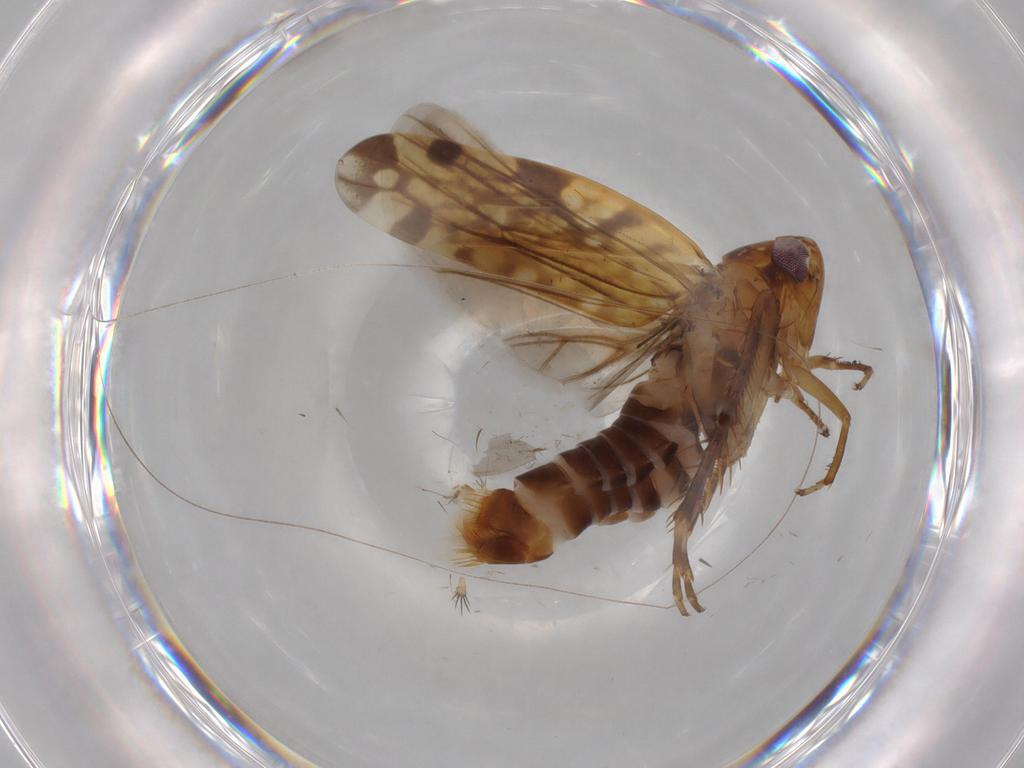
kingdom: Animalia
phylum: Arthropoda
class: Insecta
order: Hemiptera
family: Cicadellidae
